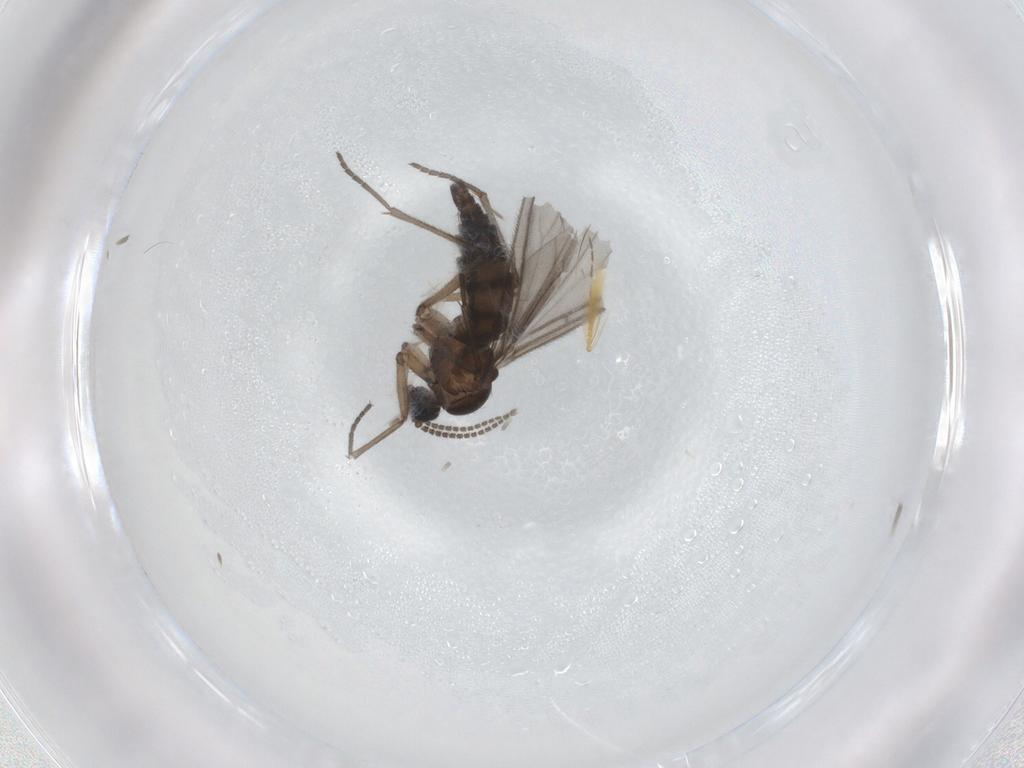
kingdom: Animalia
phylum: Arthropoda
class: Insecta
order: Diptera
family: Sciaridae
